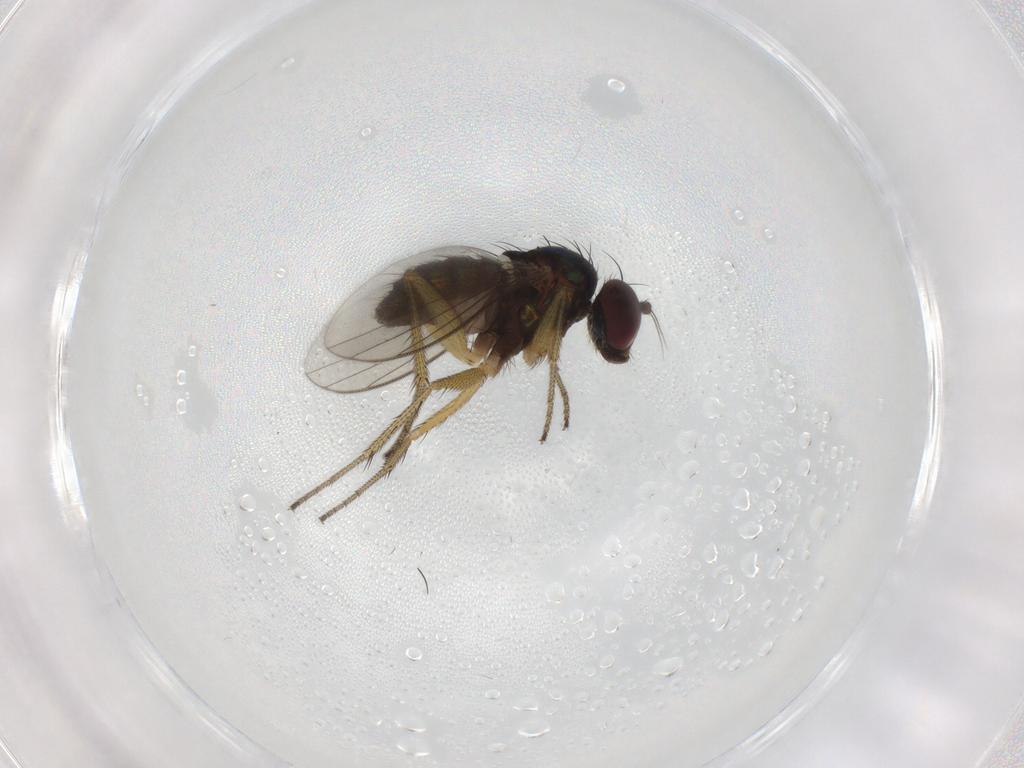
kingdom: Animalia
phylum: Arthropoda
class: Insecta
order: Diptera
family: Dolichopodidae
